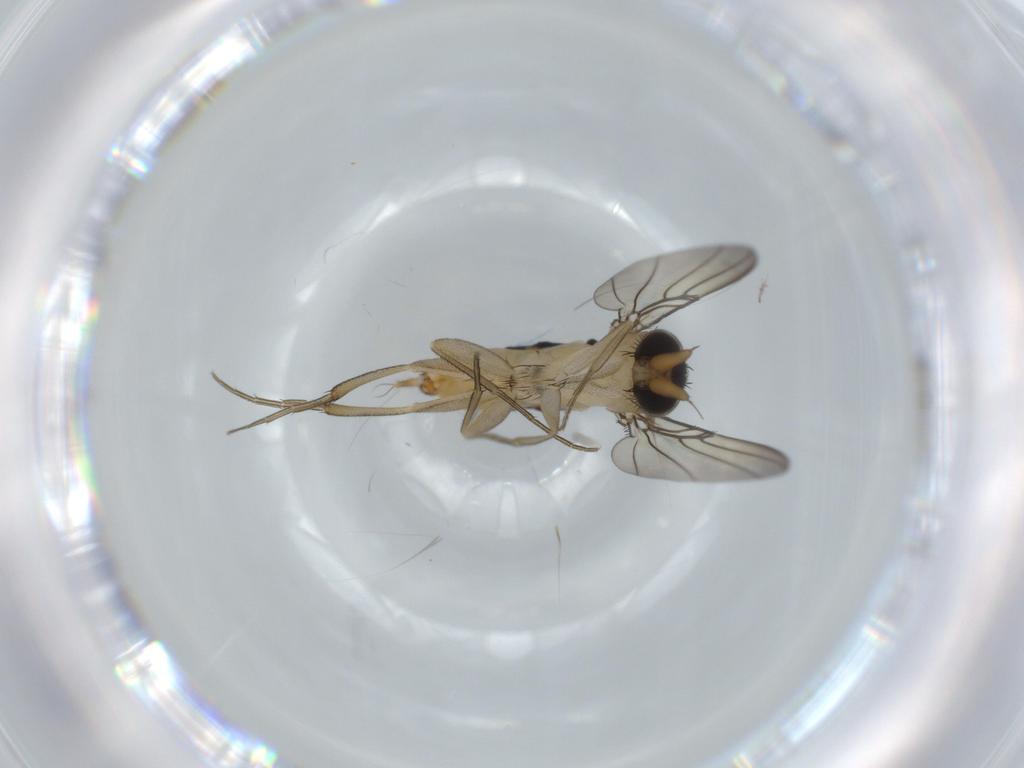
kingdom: Animalia
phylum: Arthropoda
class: Insecta
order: Diptera
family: Phoridae
